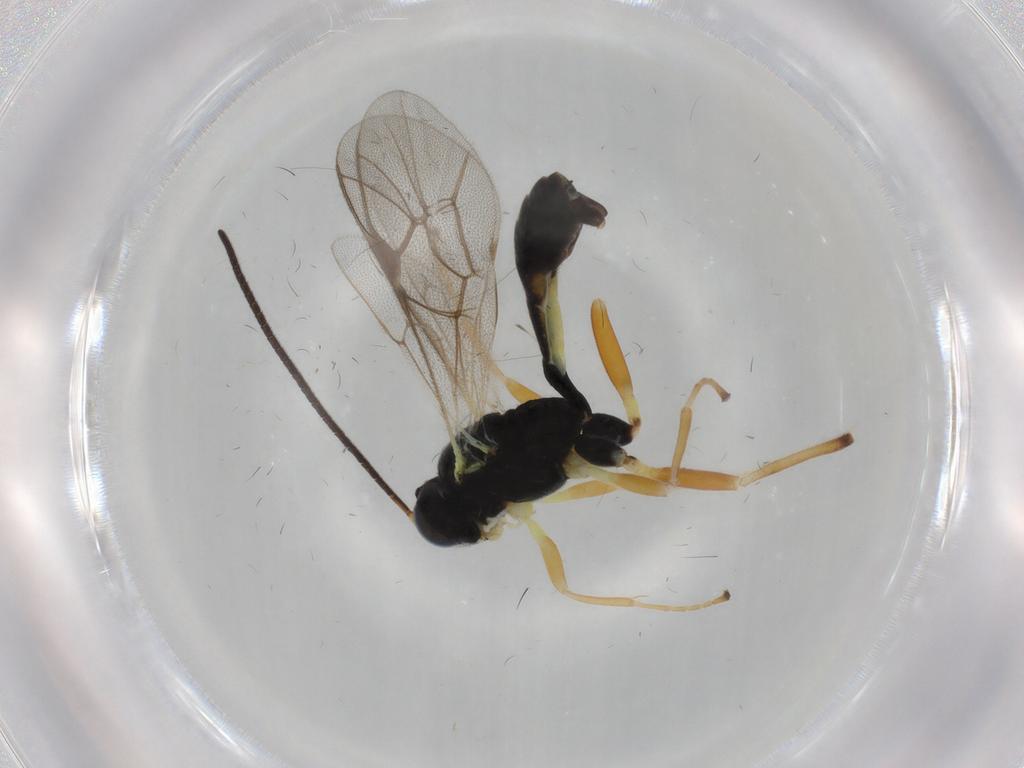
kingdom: Animalia
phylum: Arthropoda
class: Insecta
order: Hymenoptera
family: Ichneumonidae
